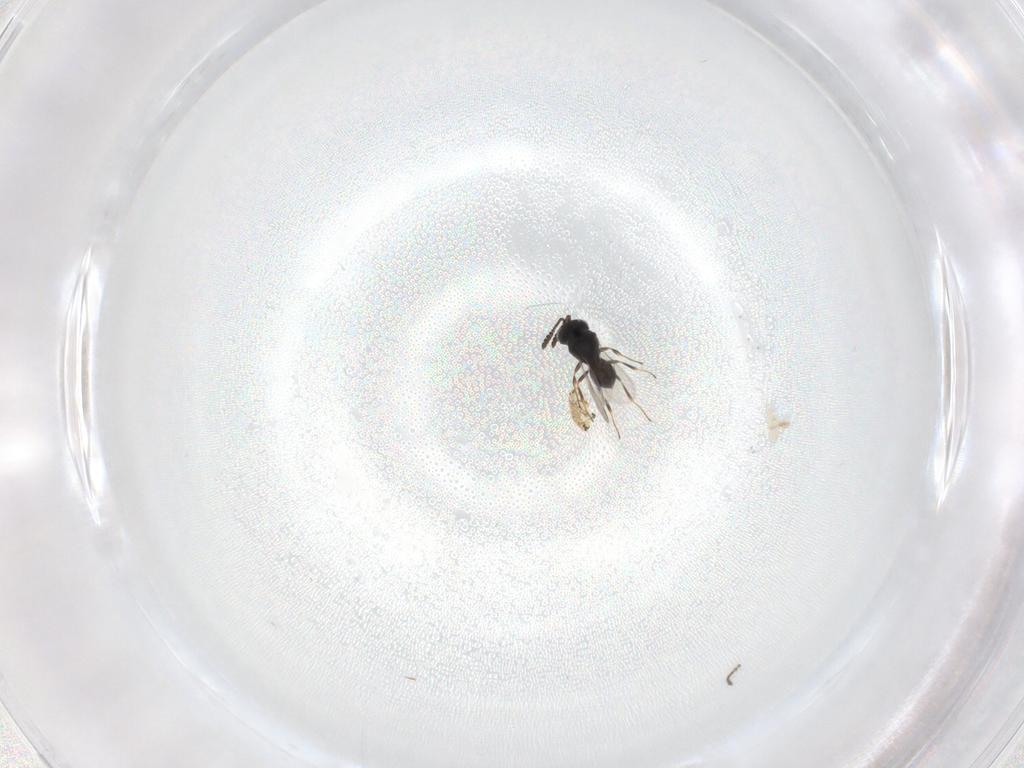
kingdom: Animalia
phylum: Arthropoda
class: Insecta
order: Hymenoptera
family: Scelionidae
